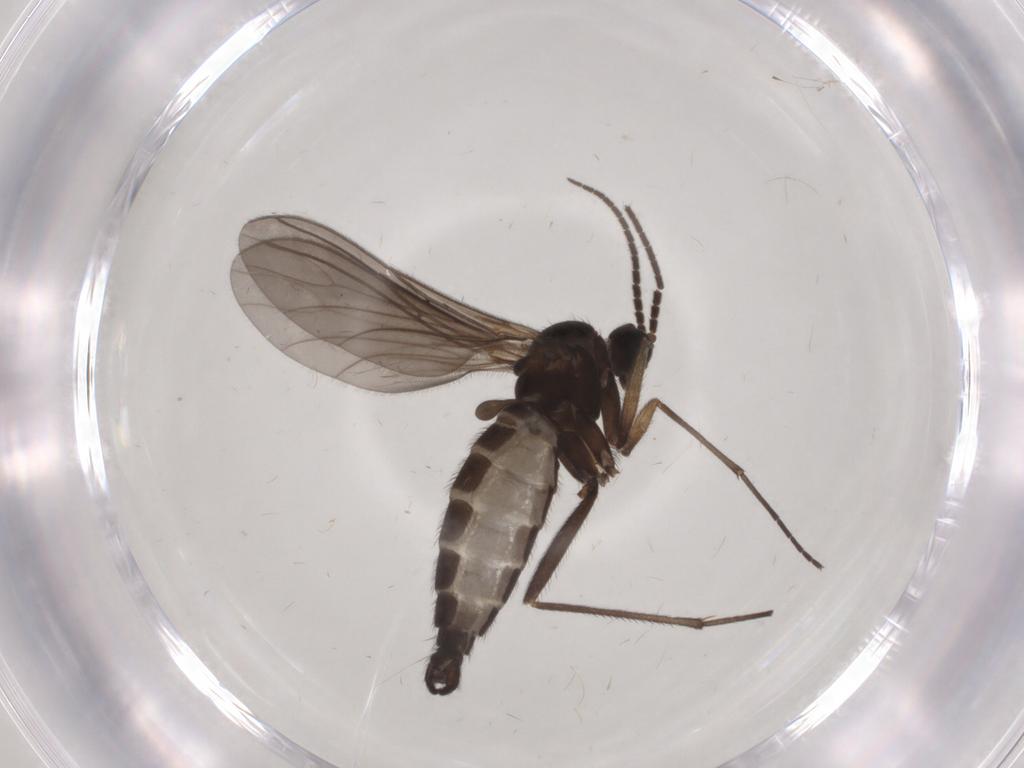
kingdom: Animalia
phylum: Arthropoda
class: Insecta
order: Diptera
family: Sciaridae
